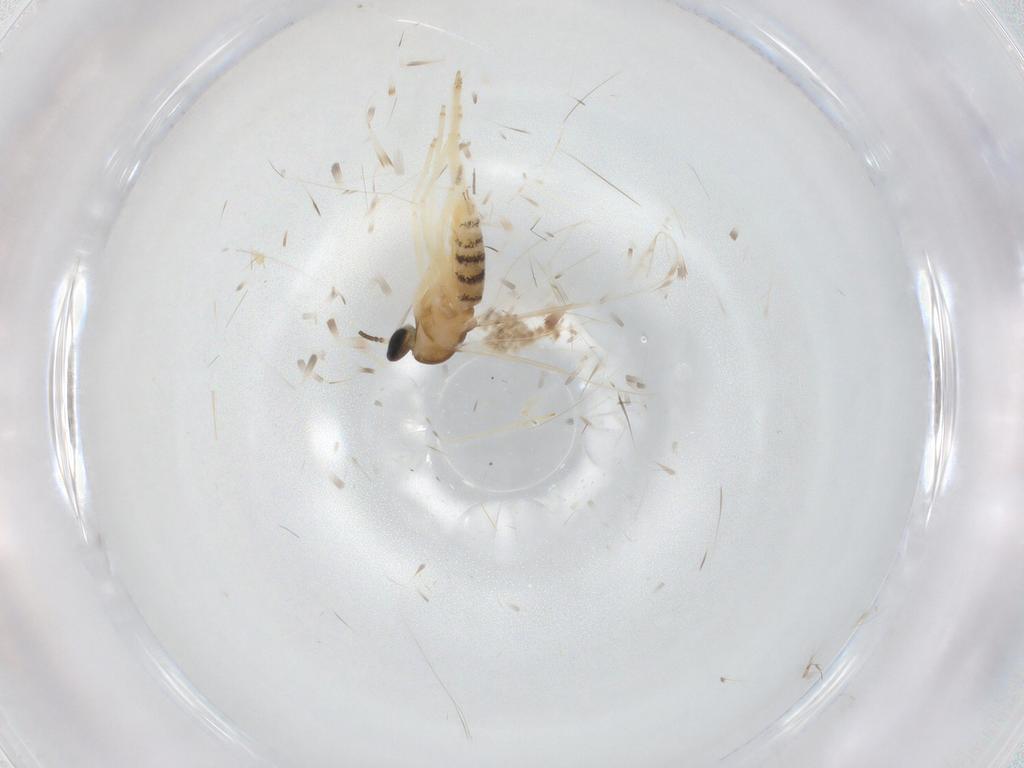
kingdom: Animalia
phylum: Arthropoda
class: Insecta
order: Diptera
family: Cecidomyiidae
